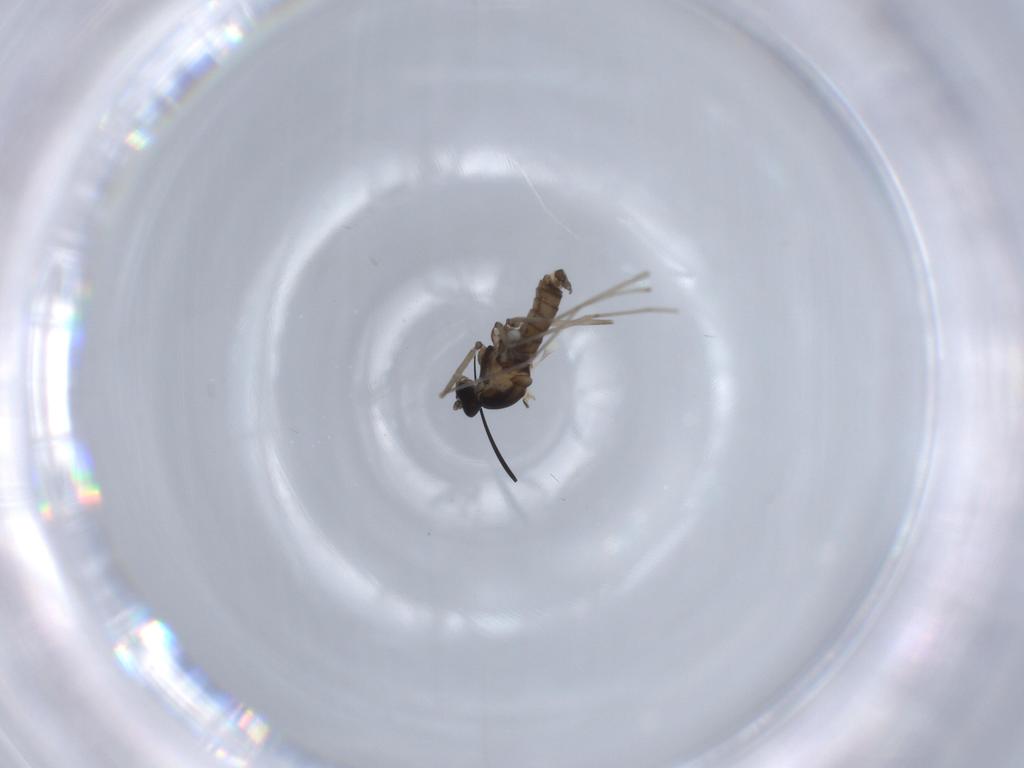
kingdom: Animalia
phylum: Arthropoda
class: Insecta
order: Diptera
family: Cecidomyiidae
